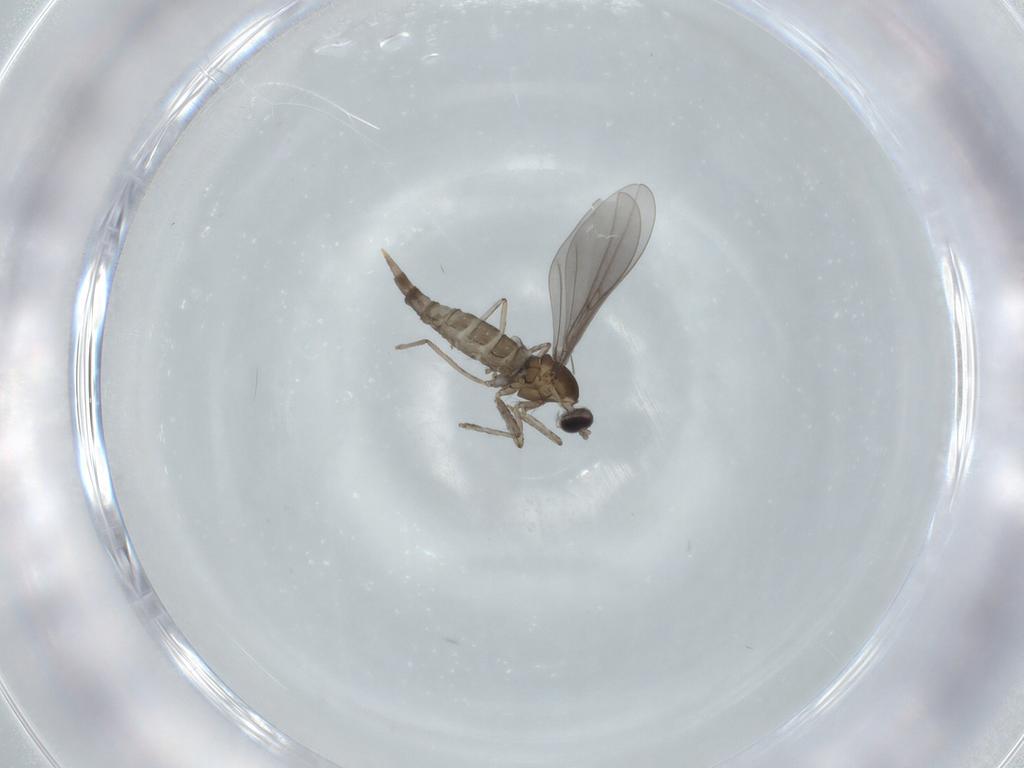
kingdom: Animalia
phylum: Arthropoda
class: Insecta
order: Diptera
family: Cecidomyiidae
